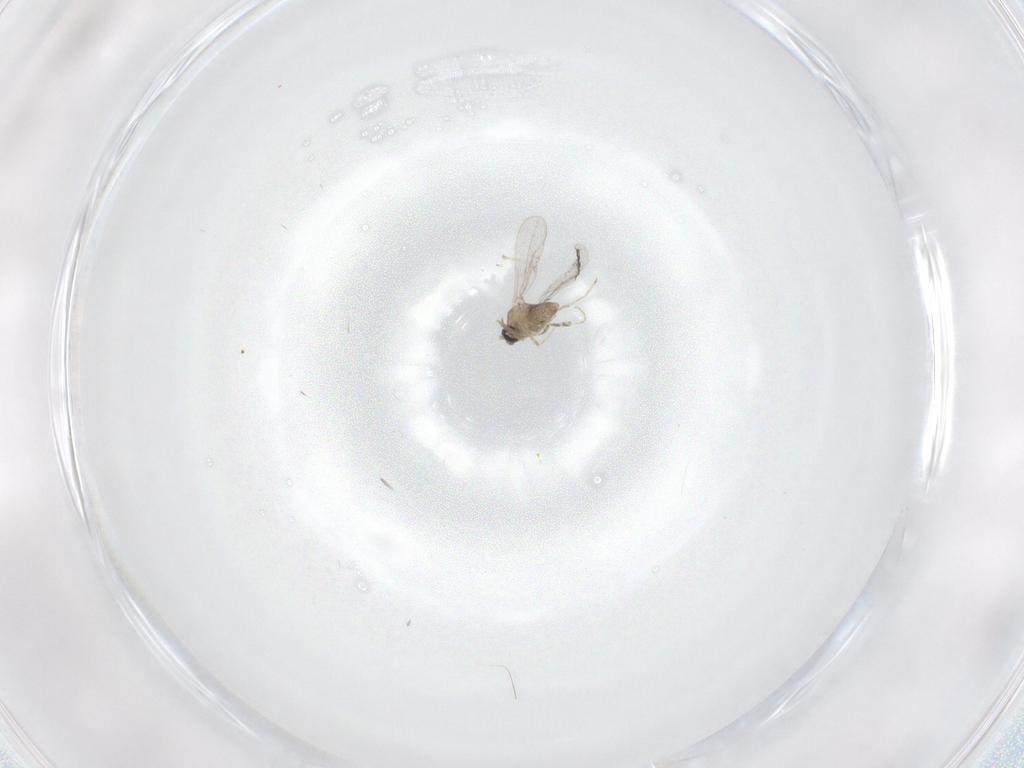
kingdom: Animalia
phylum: Arthropoda
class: Insecta
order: Diptera
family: Cecidomyiidae
